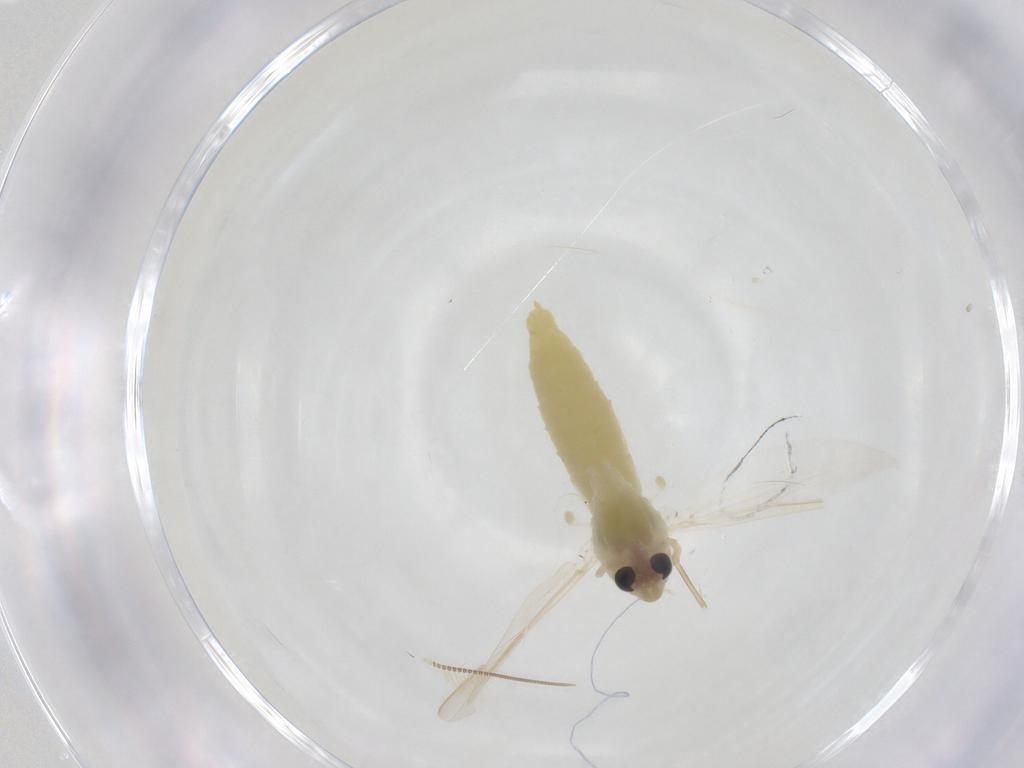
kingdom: Animalia
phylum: Arthropoda
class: Insecta
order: Diptera
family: Chironomidae
